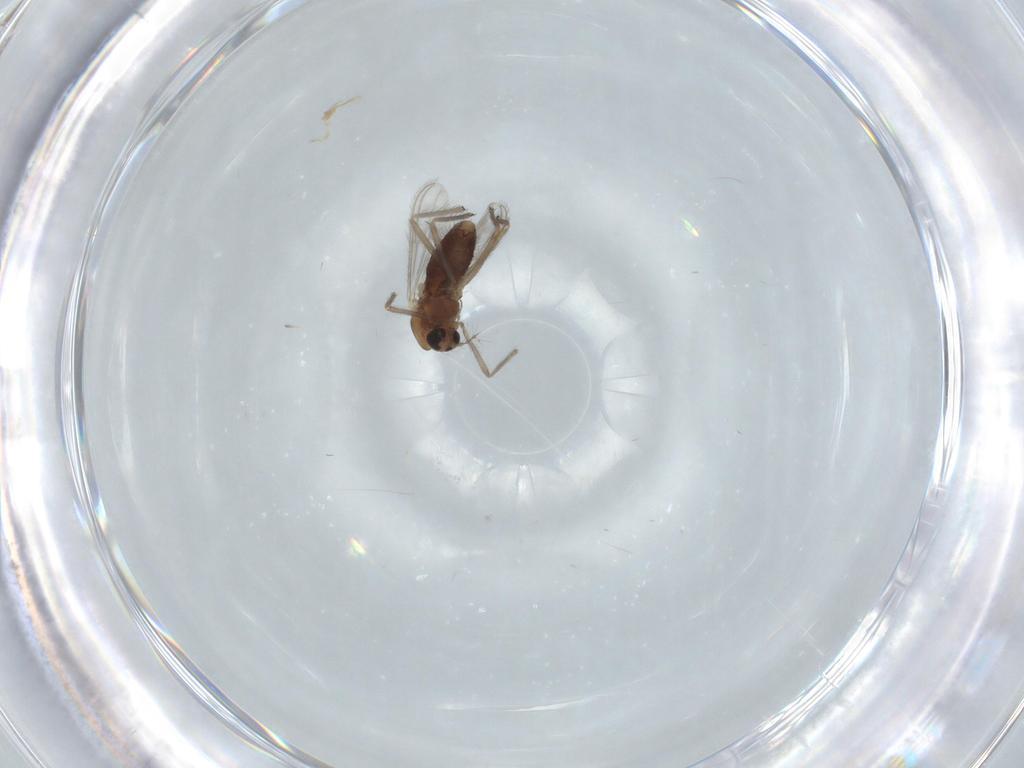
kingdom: Animalia
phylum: Arthropoda
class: Insecta
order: Diptera
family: Chironomidae
